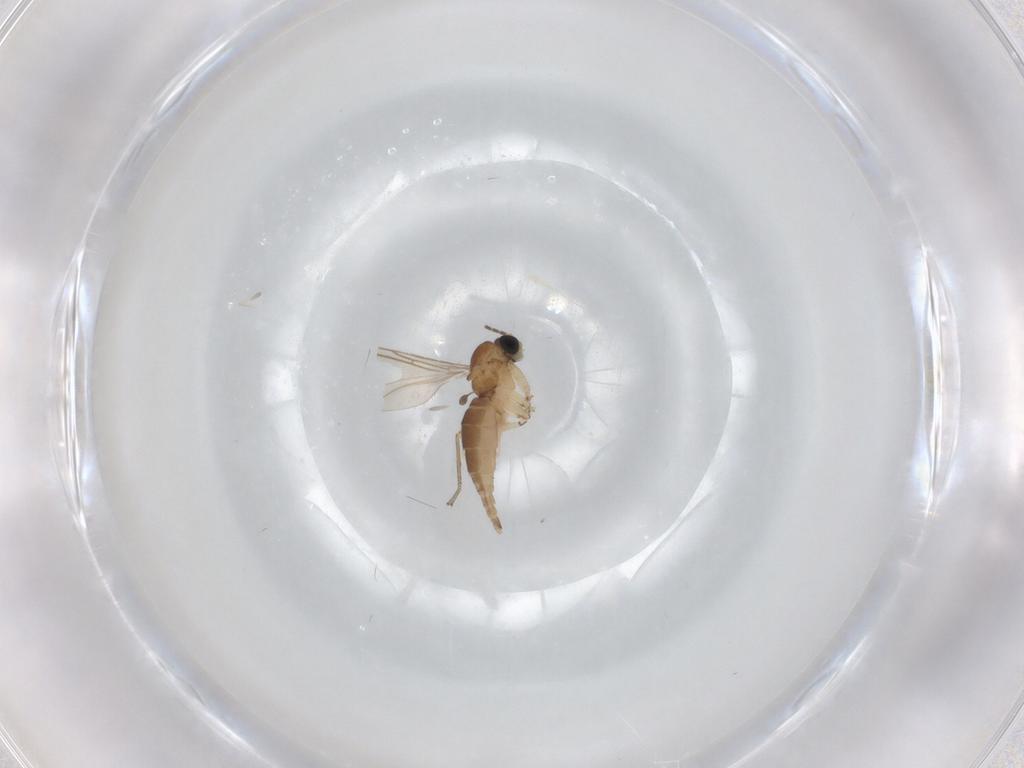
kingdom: Animalia
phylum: Arthropoda
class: Insecta
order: Diptera
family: Sciaridae
